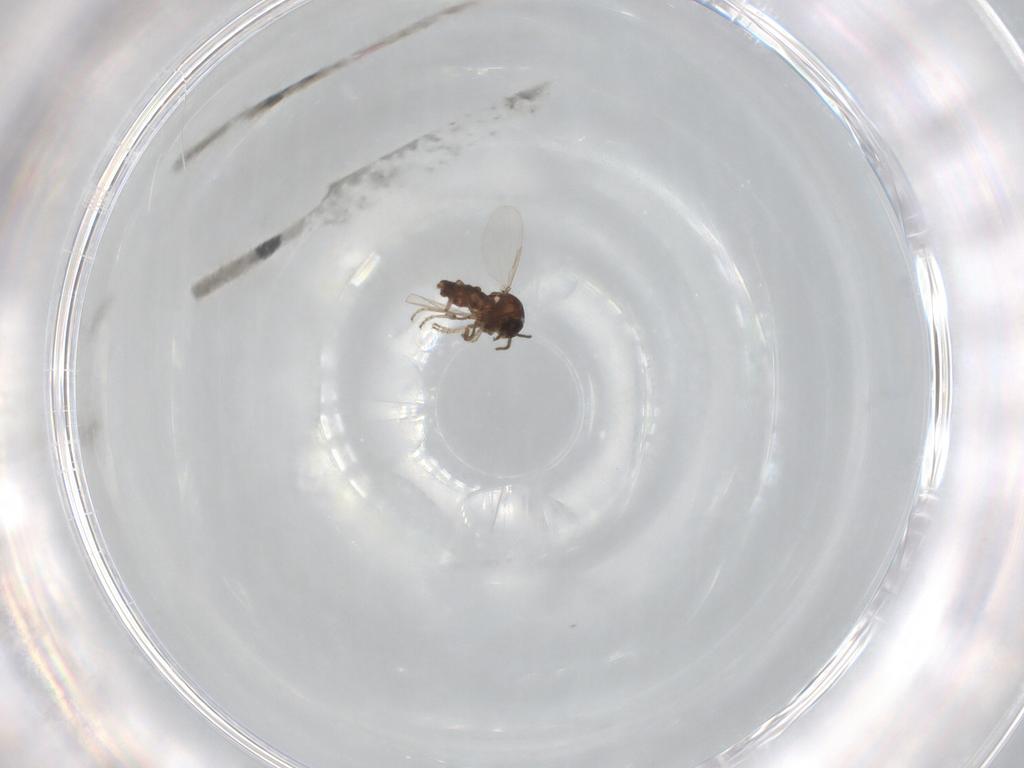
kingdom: Animalia
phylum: Arthropoda
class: Insecta
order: Diptera
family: Ceratopogonidae
